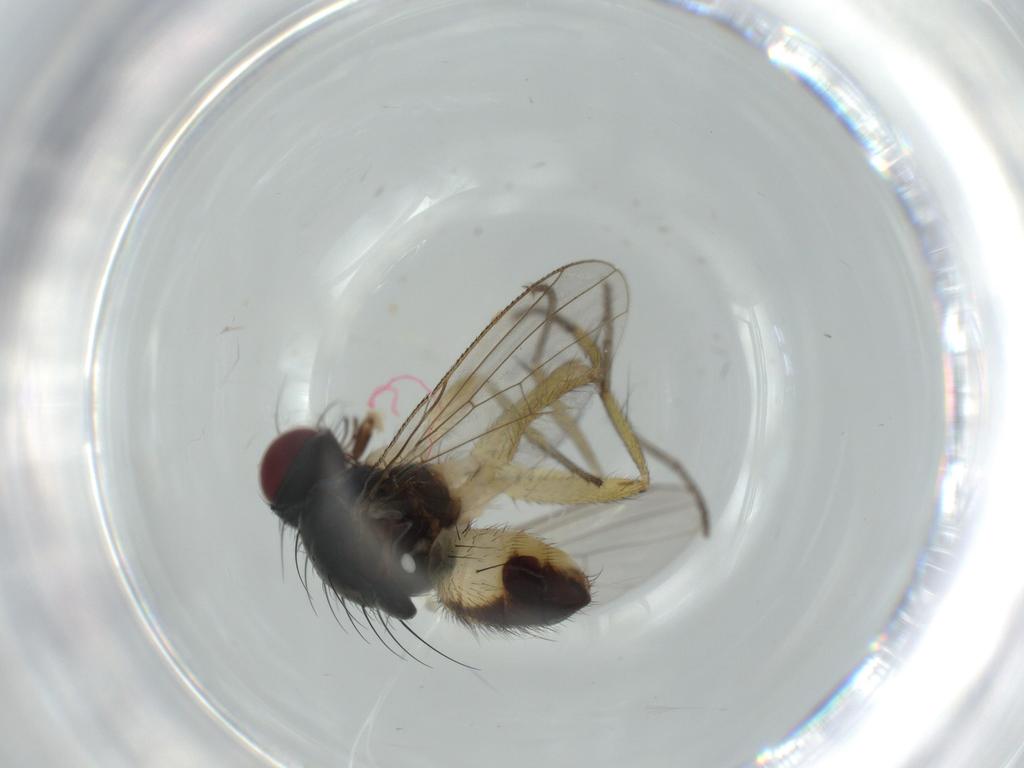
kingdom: Animalia
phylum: Arthropoda
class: Insecta
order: Diptera
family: Muscidae
